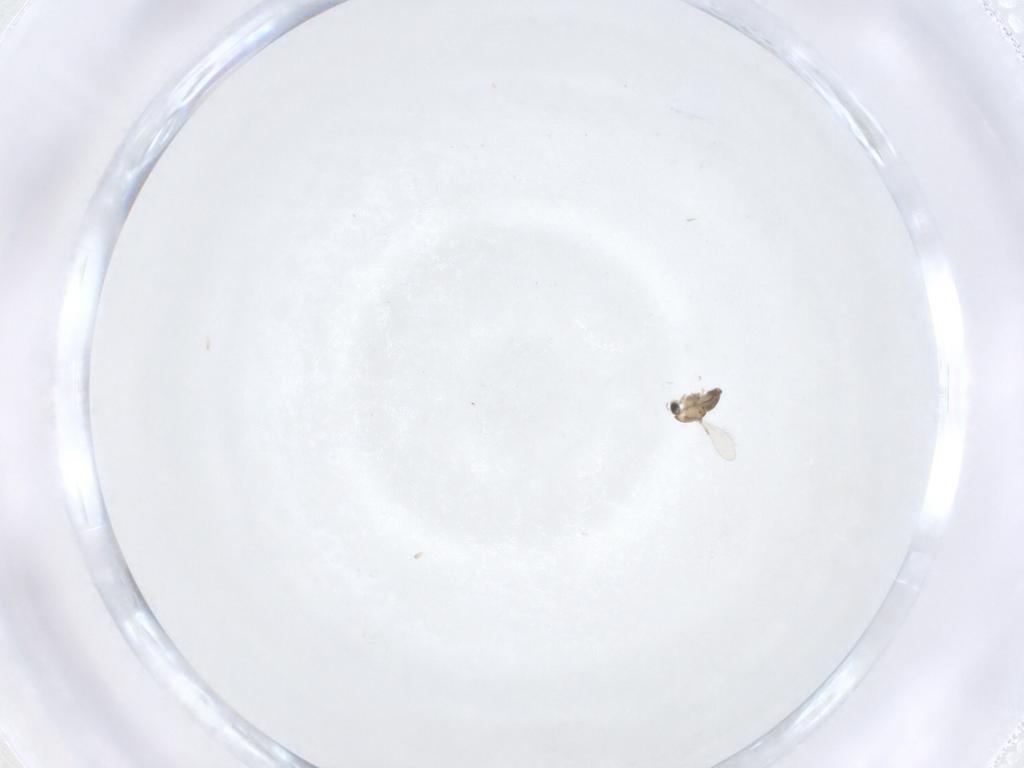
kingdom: Animalia
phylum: Arthropoda
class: Insecta
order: Diptera
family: Chironomidae
